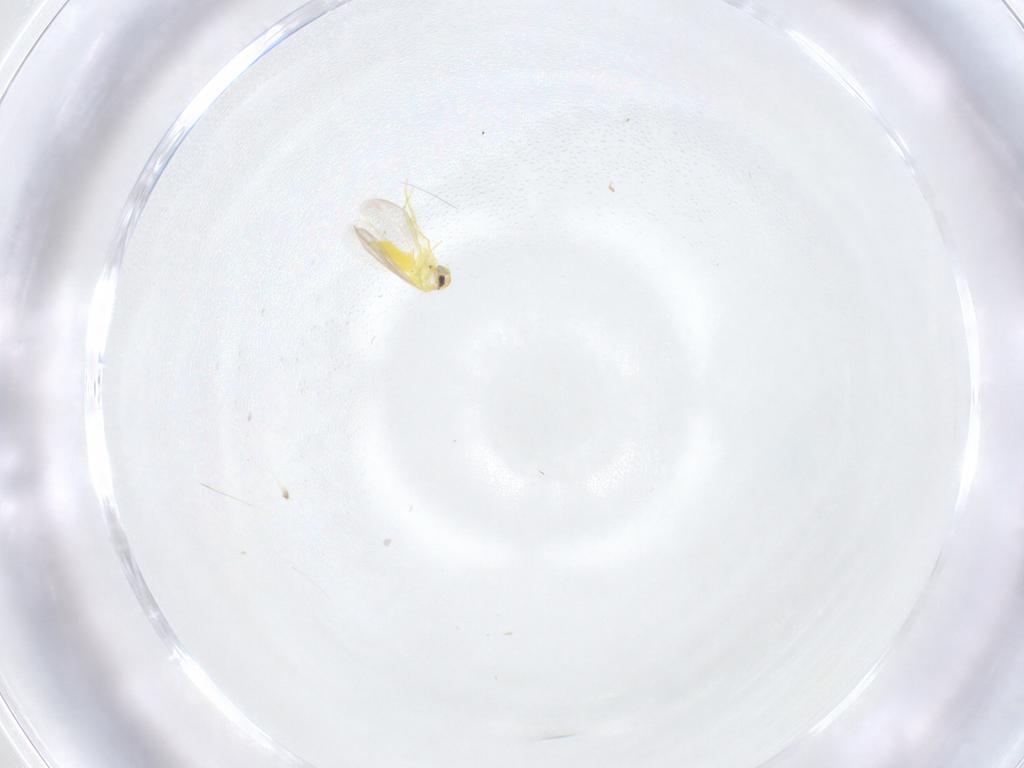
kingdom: Animalia
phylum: Arthropoda
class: Insecta
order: Hemiptera
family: Aleyrodidae
